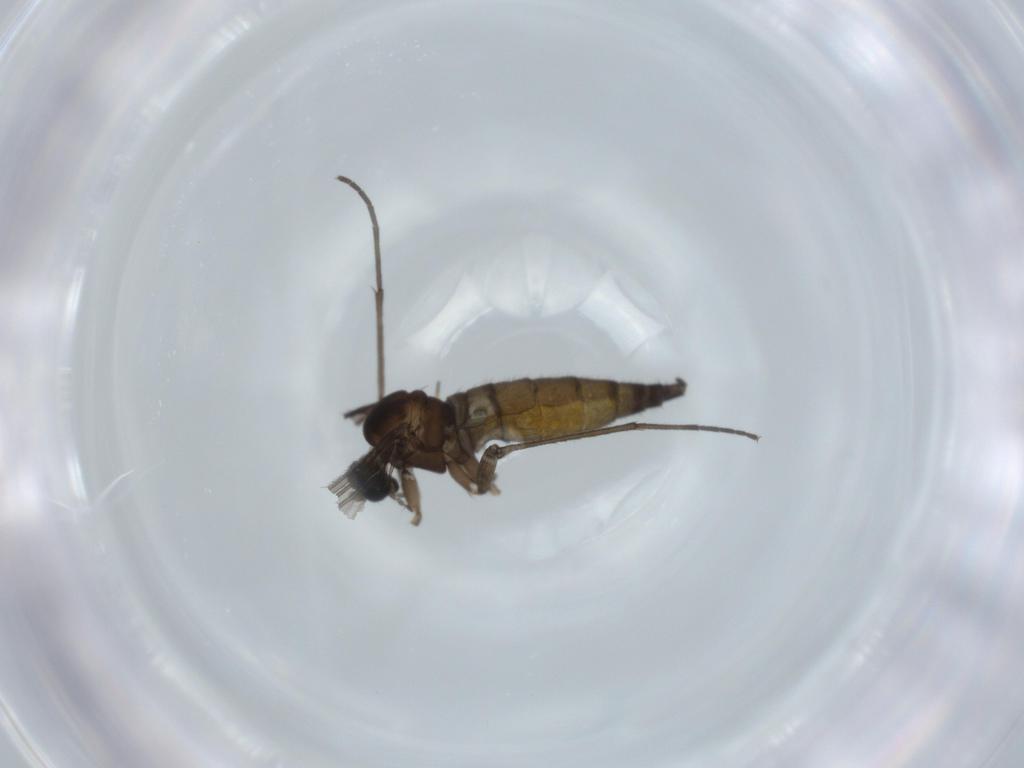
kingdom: Animalia
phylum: Arthropoda
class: Insecta
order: Diptera
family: Sciaridae
